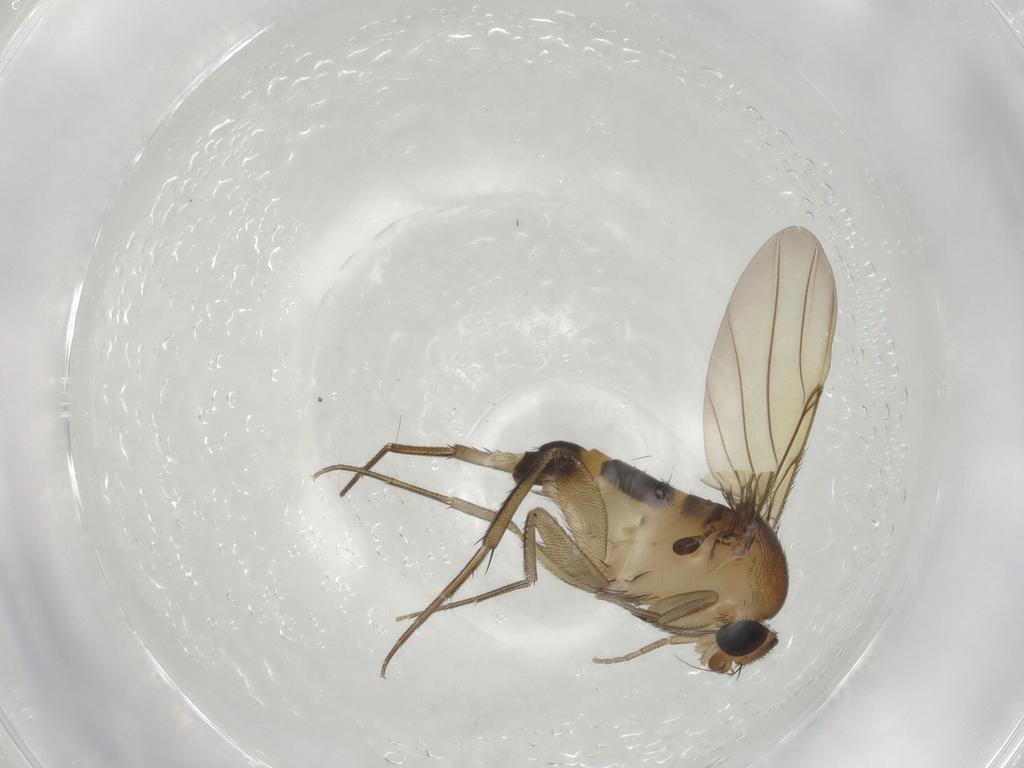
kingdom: Animalia
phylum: Arthropoda
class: Insecta
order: Diptera
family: Phoridae
